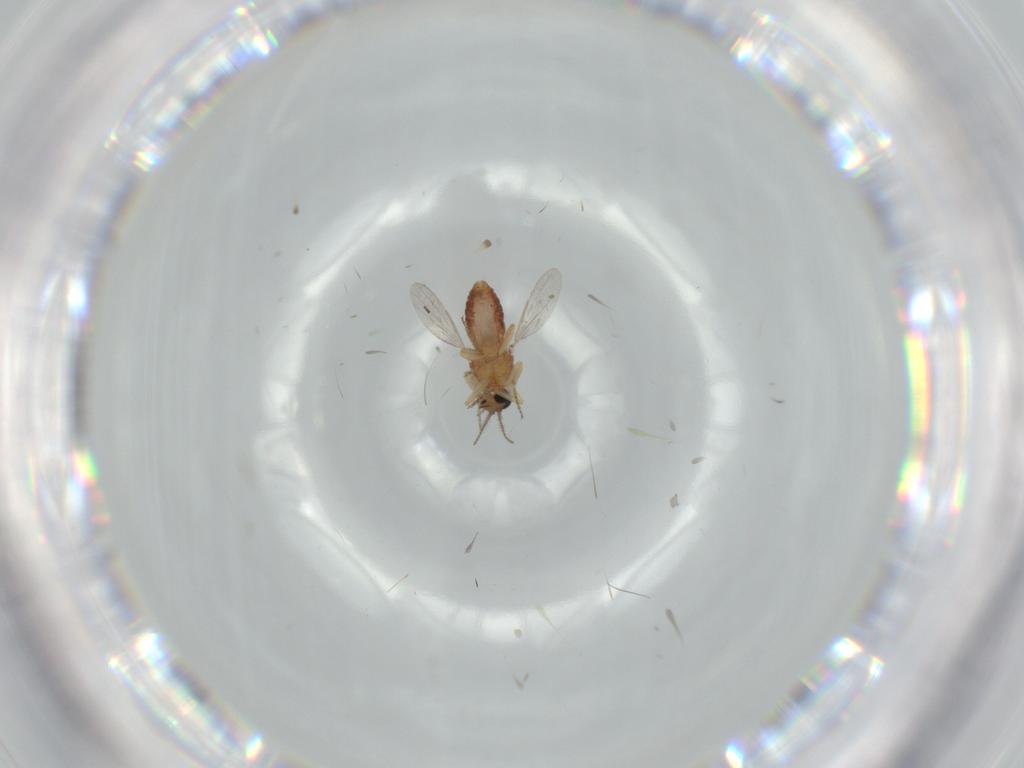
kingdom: Animalia
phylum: Arthropoda
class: Insecta
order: Diptera
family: Ceratopogonidae
